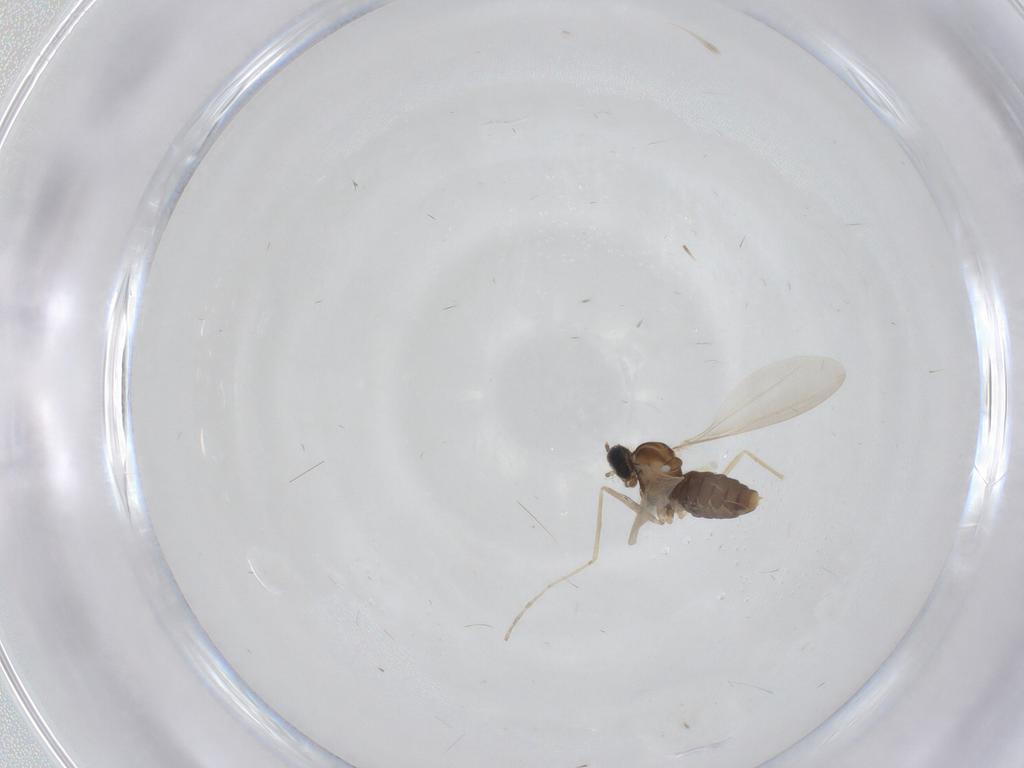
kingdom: Animalia
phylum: Arthropoda
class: Insecta
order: Diptera
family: Cecidomyiidae
